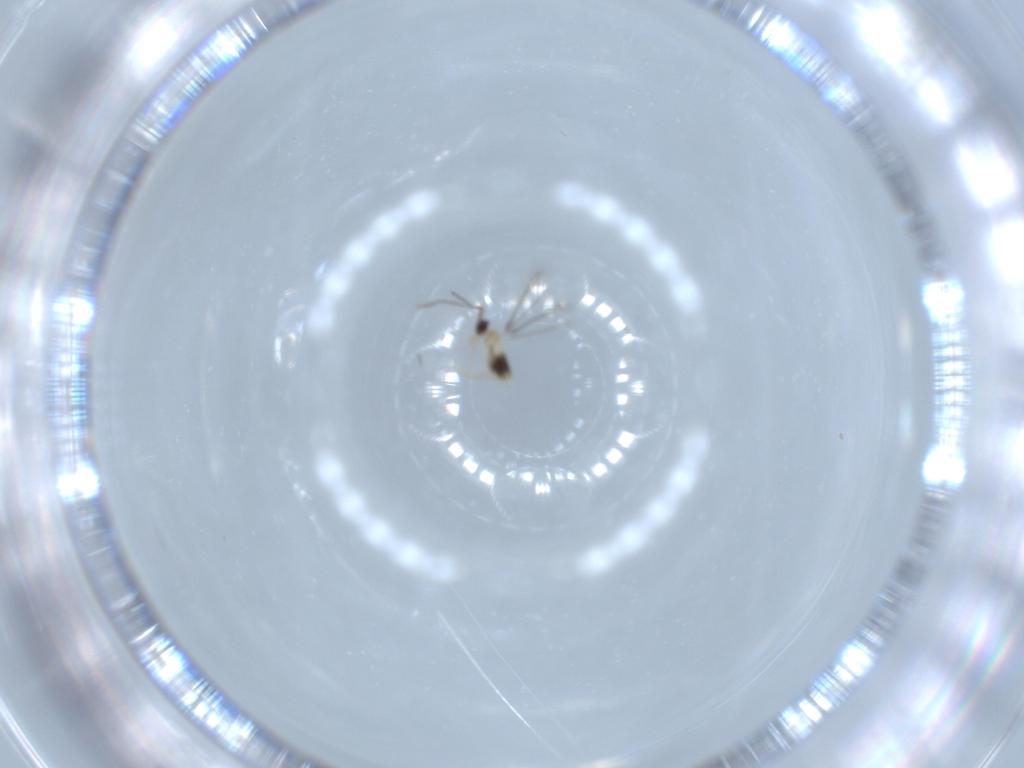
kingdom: Animalia
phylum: Arthropoda
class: Insecta
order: Hymenoptera
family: Mymaridae
